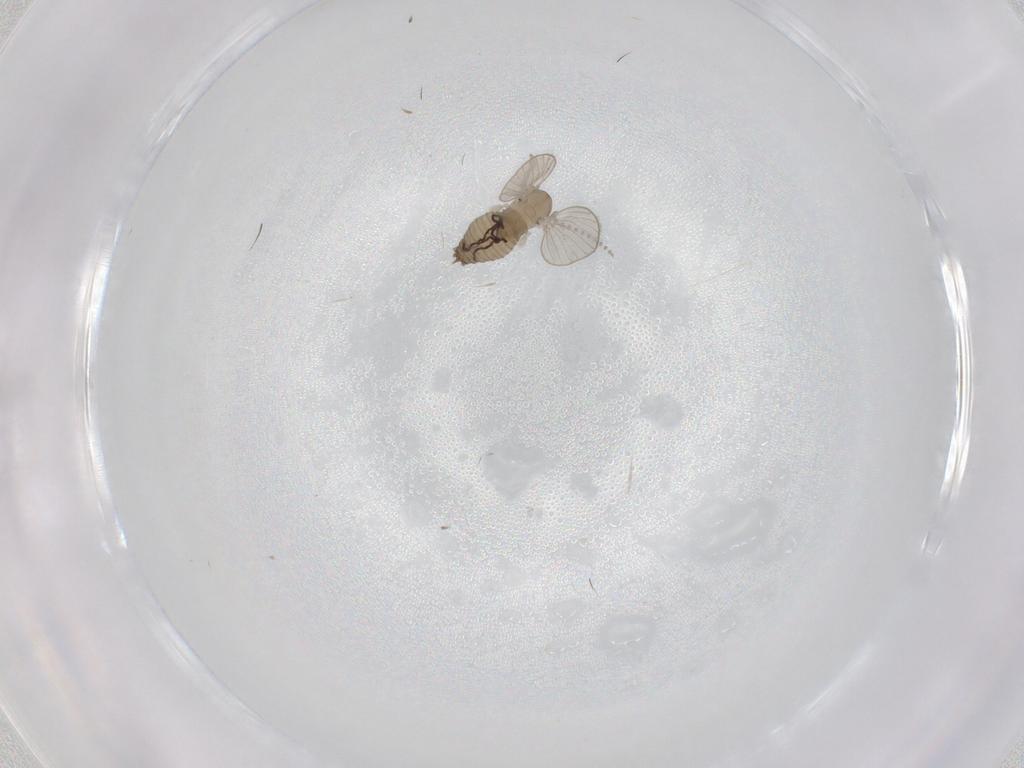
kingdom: Animalia
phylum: Arthropoda
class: Insecta
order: Diptera
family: Psychodidae
